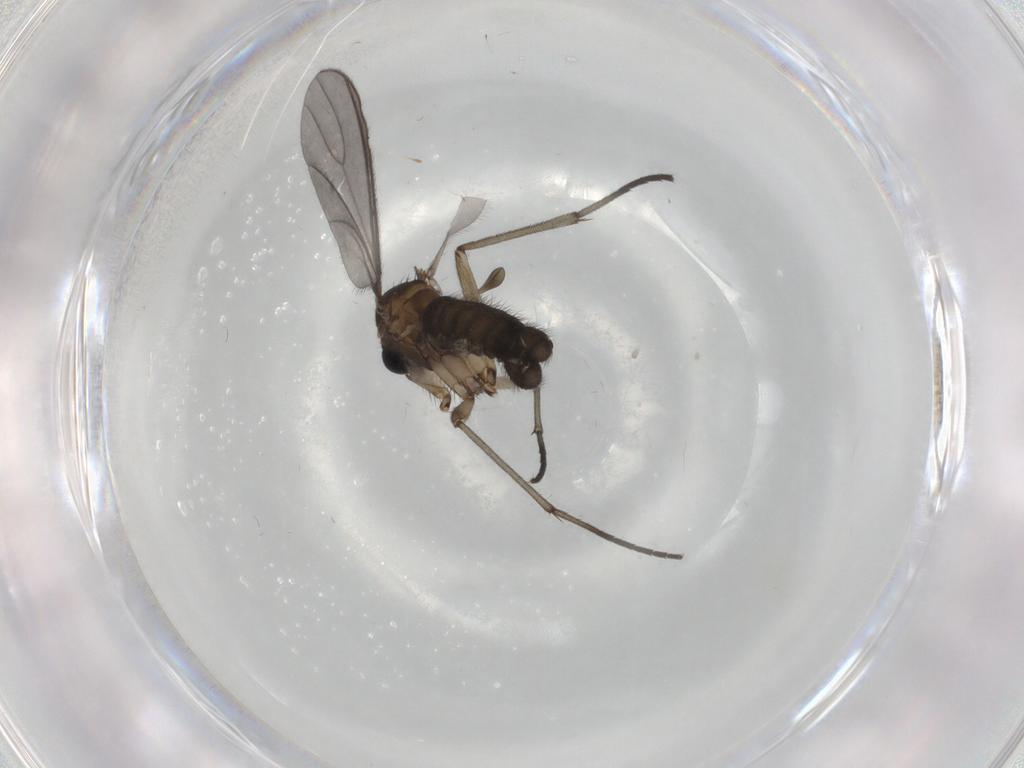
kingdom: Animalia
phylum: Arthropoda
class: Insecta
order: Diptera
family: Sciaridae
